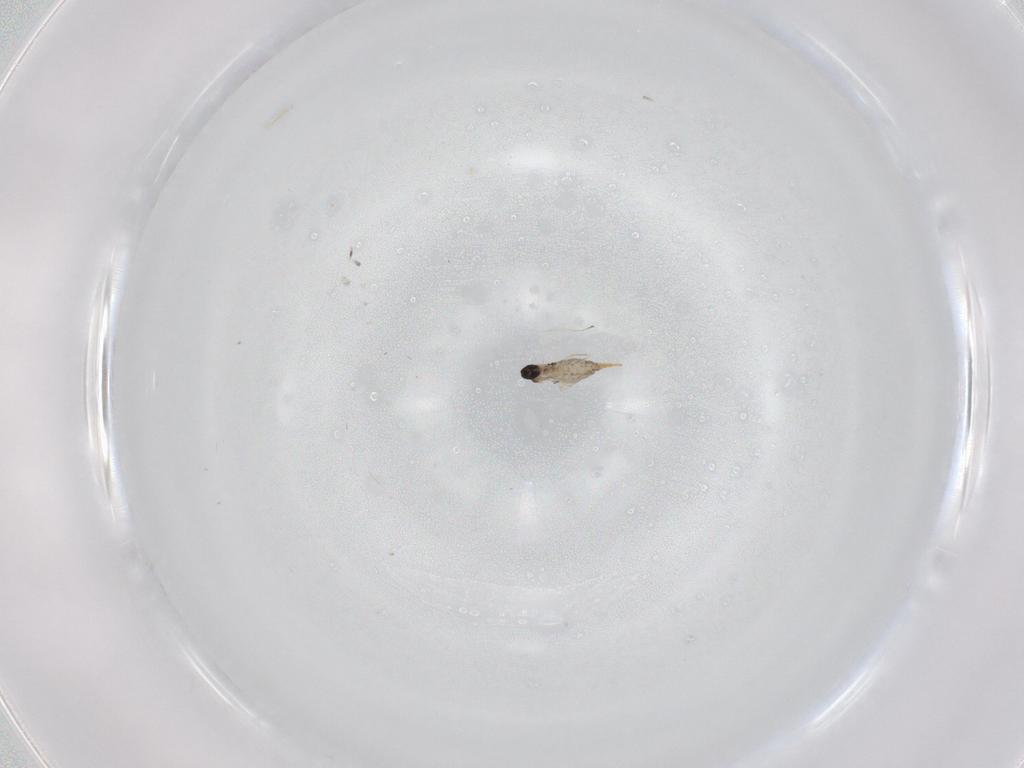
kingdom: Animalia
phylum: Arthropoda
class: Insecta
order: Diptera
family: Cecidomyiidae
